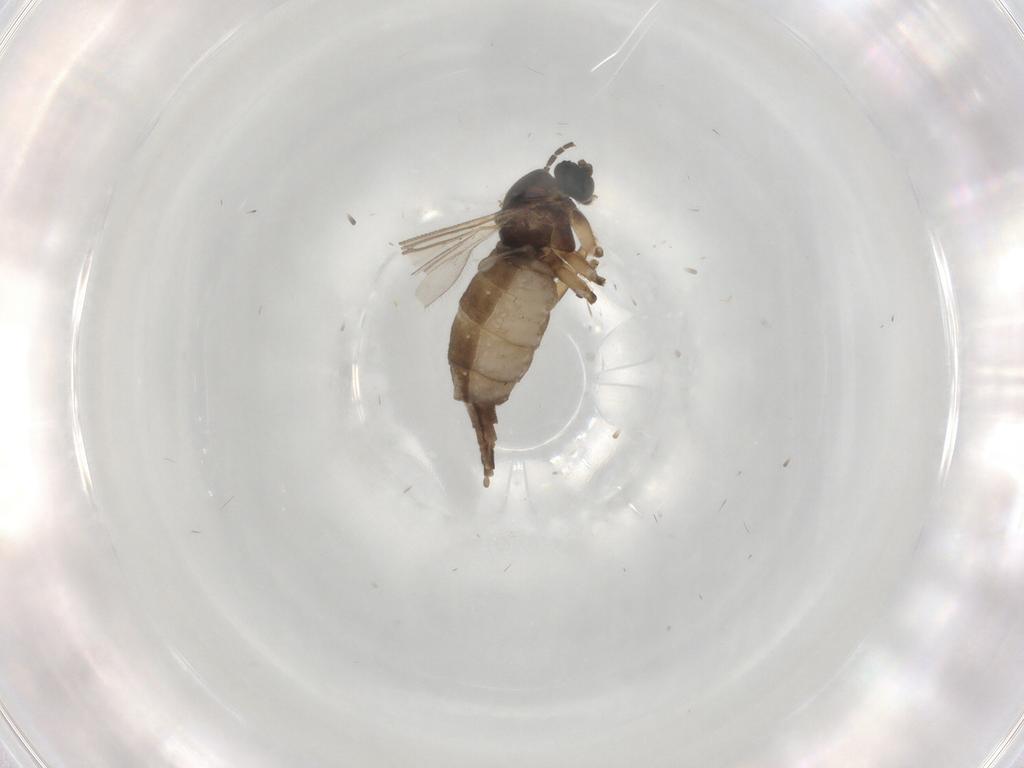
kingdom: Animalia
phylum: Arthropoda
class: Insecta
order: Diptera
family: Sciaridae
